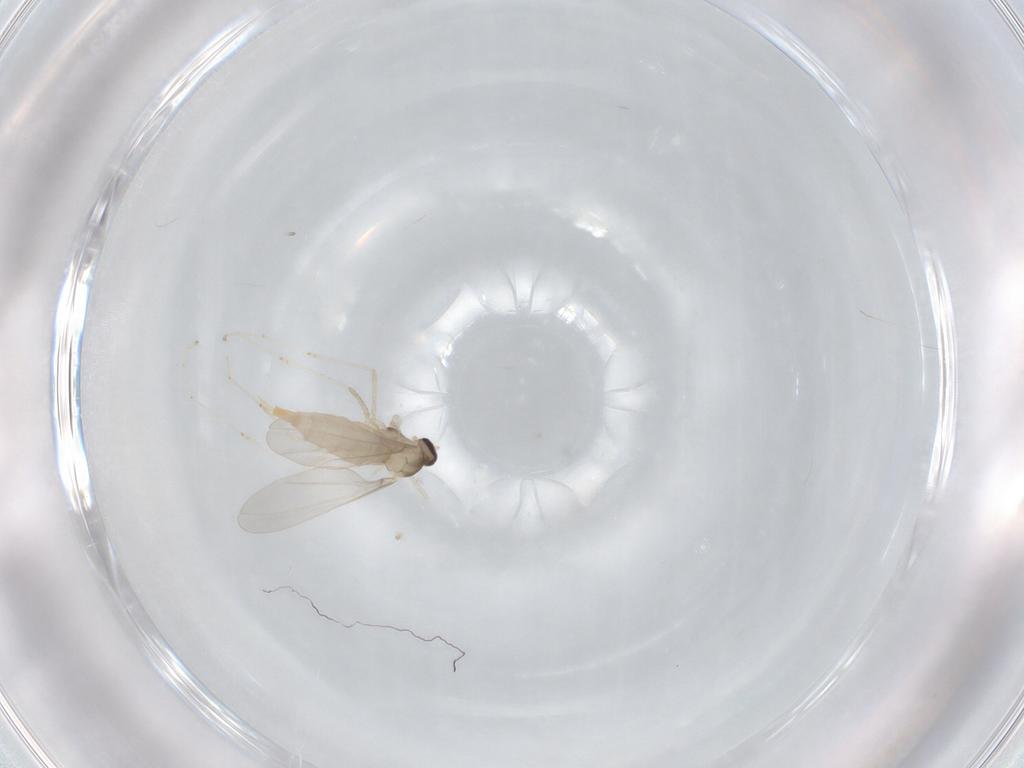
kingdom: Animalia
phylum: Arthropoda
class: Insecta
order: Diptera
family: Cecidomyiidae
